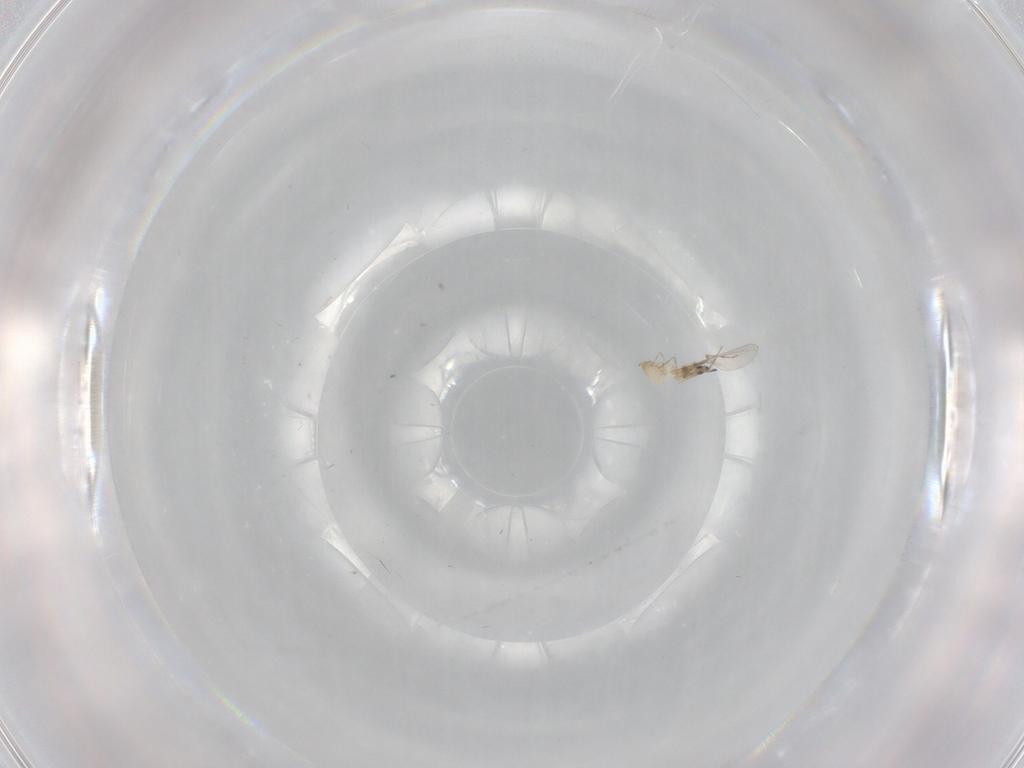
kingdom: Animalia
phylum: Arthropoda
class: Insecta
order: Diptera
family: Cecidomyiidae
